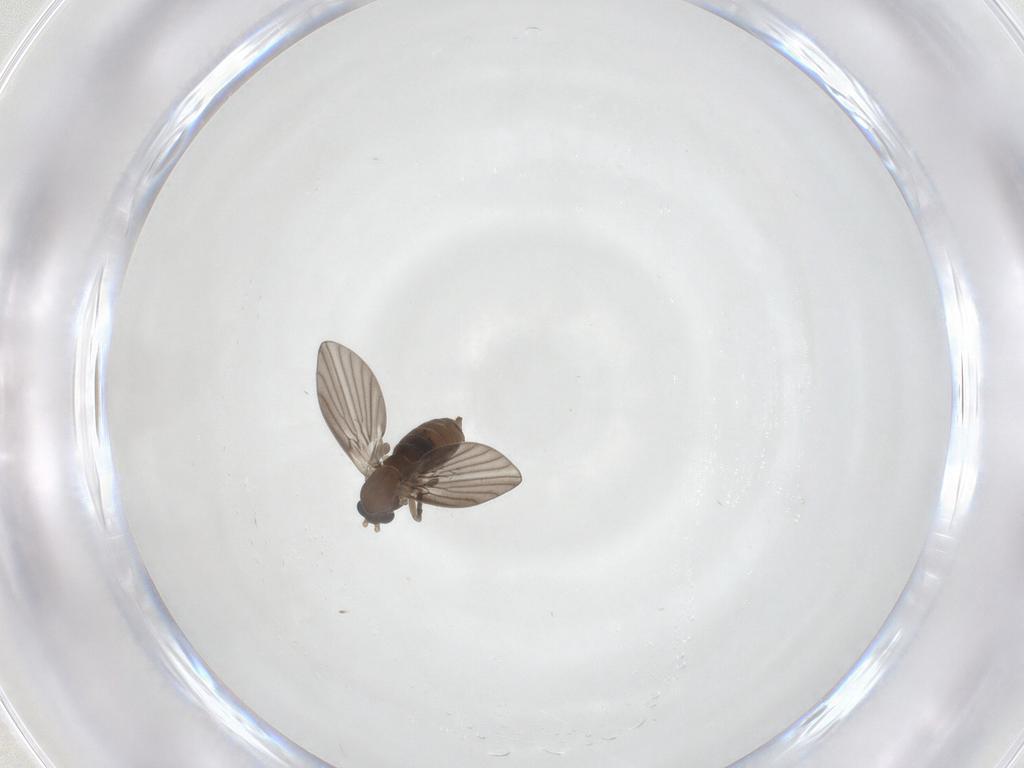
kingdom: Animalia
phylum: Arthropoda
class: Insecta
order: Diptera
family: Psychodidae
